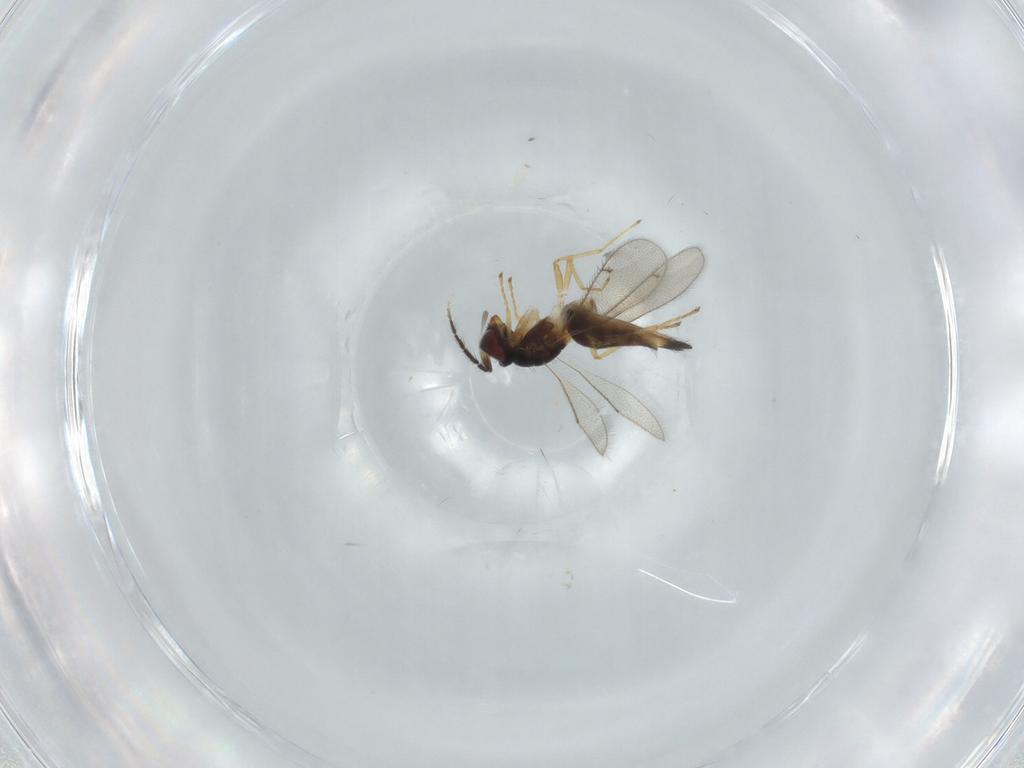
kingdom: Animalia
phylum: Arthropoda
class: Insecta
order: Hymenoptera
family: Eulophidae
